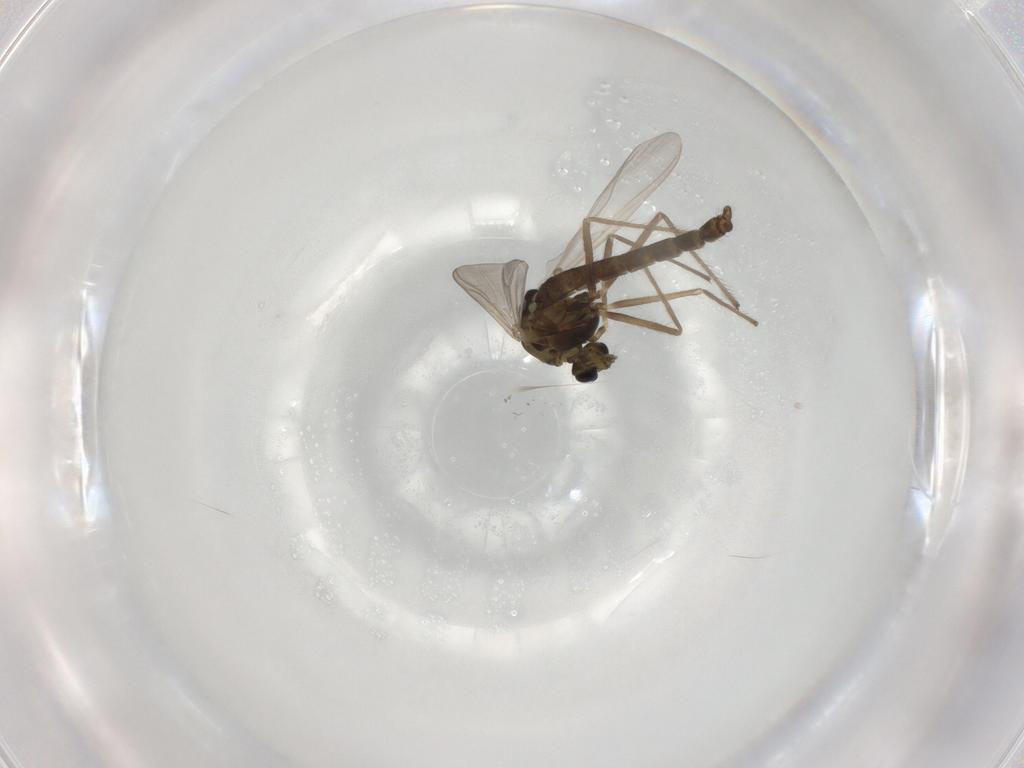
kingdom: Animalia
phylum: Arthropoda
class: Insecta
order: Diptera
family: Chironomidae
